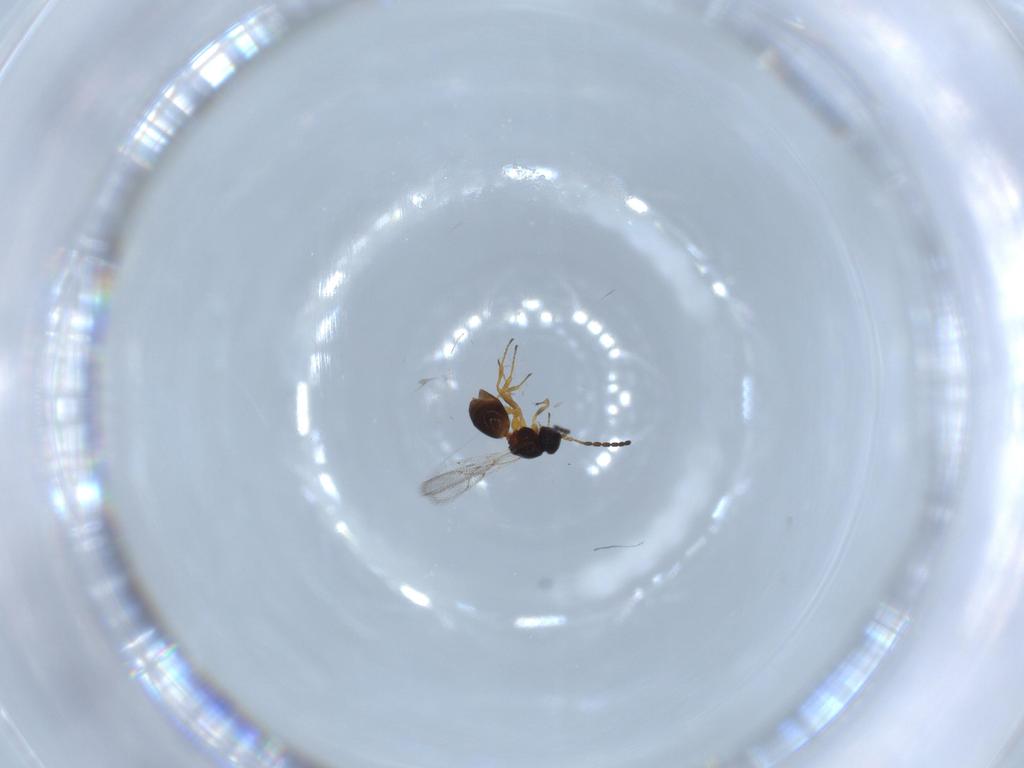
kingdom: Animalia
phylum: Arthropoda
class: Insecta
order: Hymenoptera
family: Figitidae
